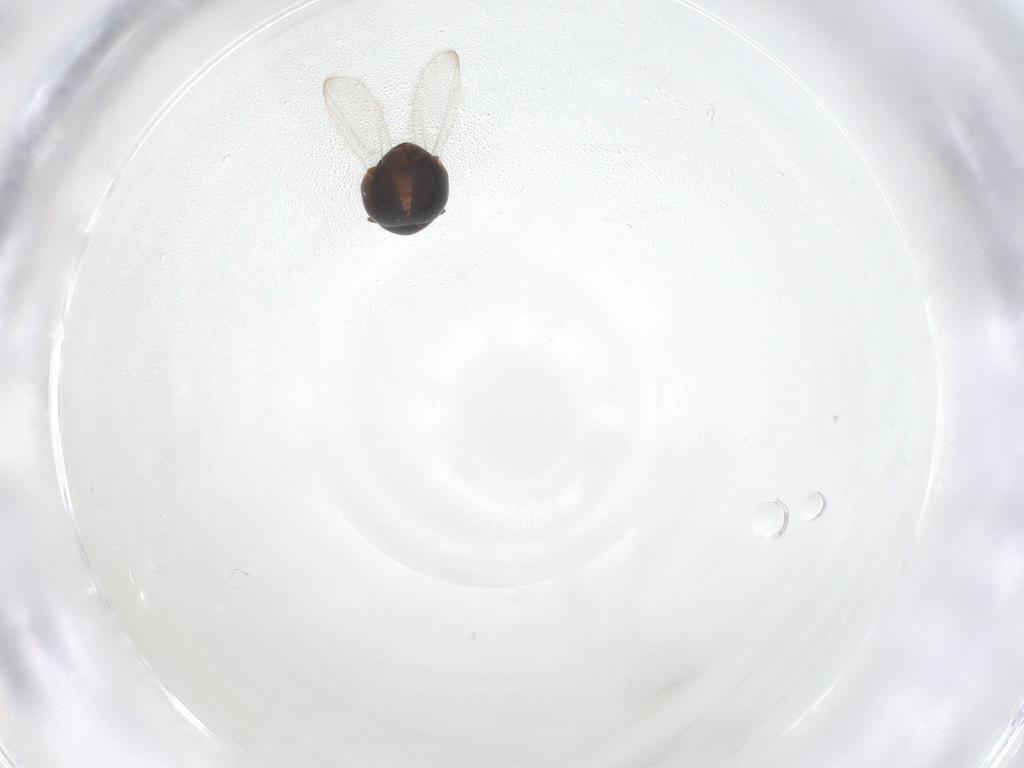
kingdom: Animalia
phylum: Arthropoda
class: Insecta
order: Coleoptera
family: Corylophidae
